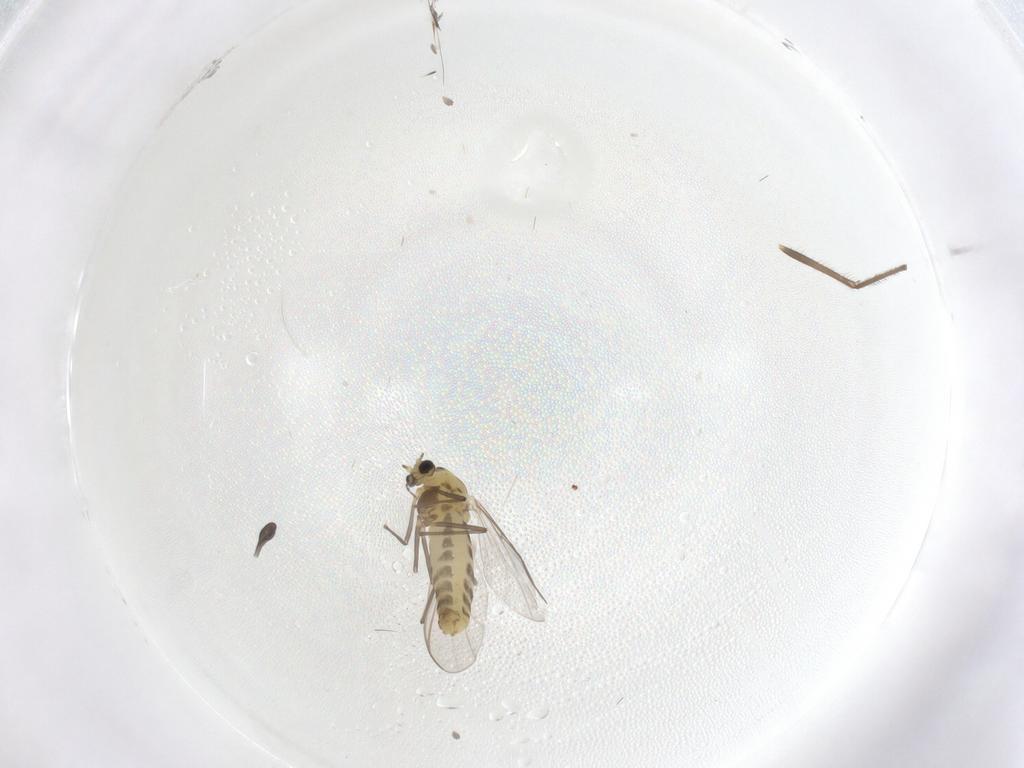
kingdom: Animalia
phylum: Arthropoda
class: Insecta
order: Diptera
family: Chironomidae
